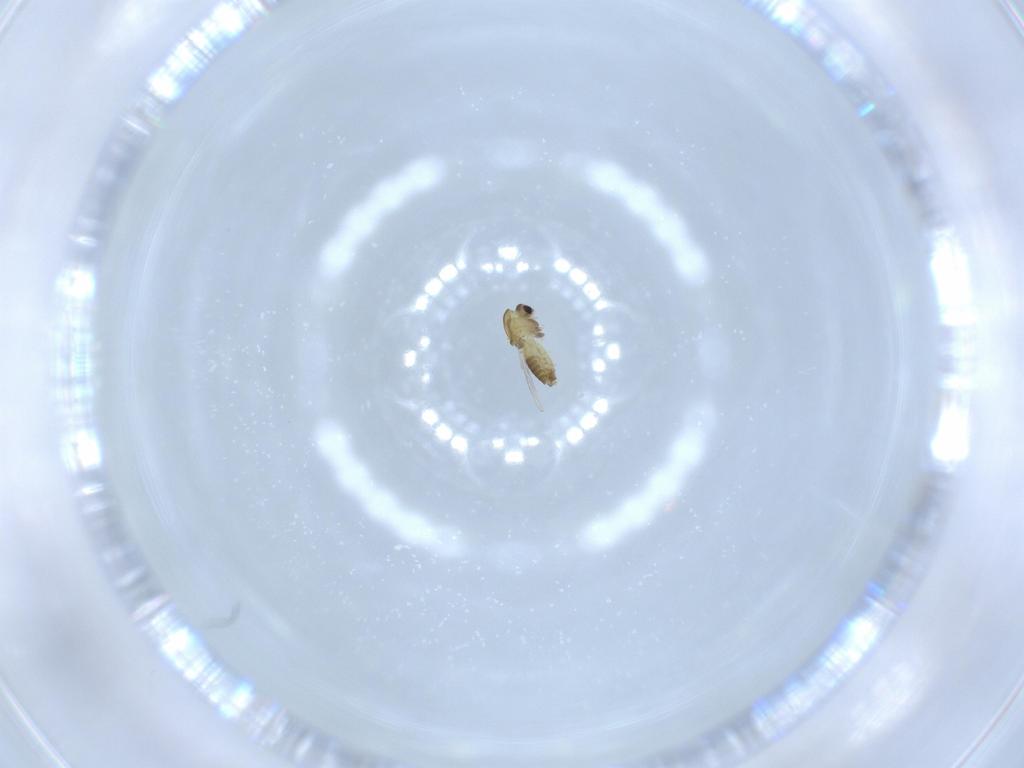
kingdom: Animalia
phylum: Arthropoda
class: Insecta
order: Diptera
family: Chironomidae
